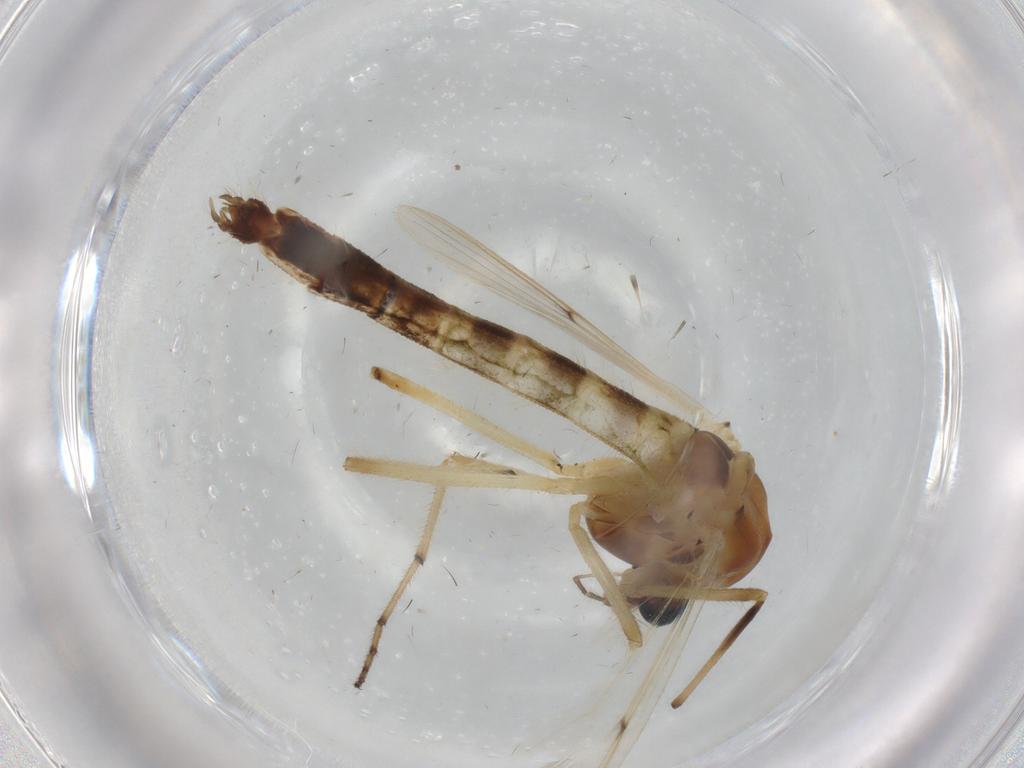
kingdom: Animalia
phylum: Arthropoda
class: Insecta
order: Diptera
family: Chironomidae
